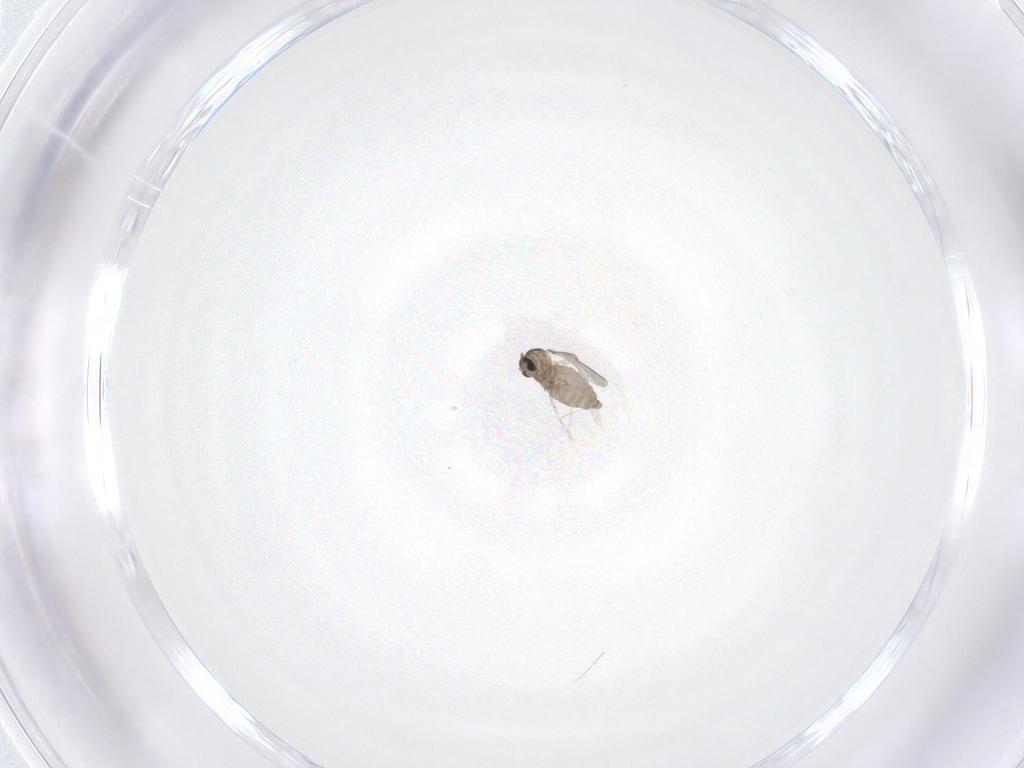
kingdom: Animalia
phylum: Arthropoda
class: Insecta
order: Diptera
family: Cecidomyiidae
